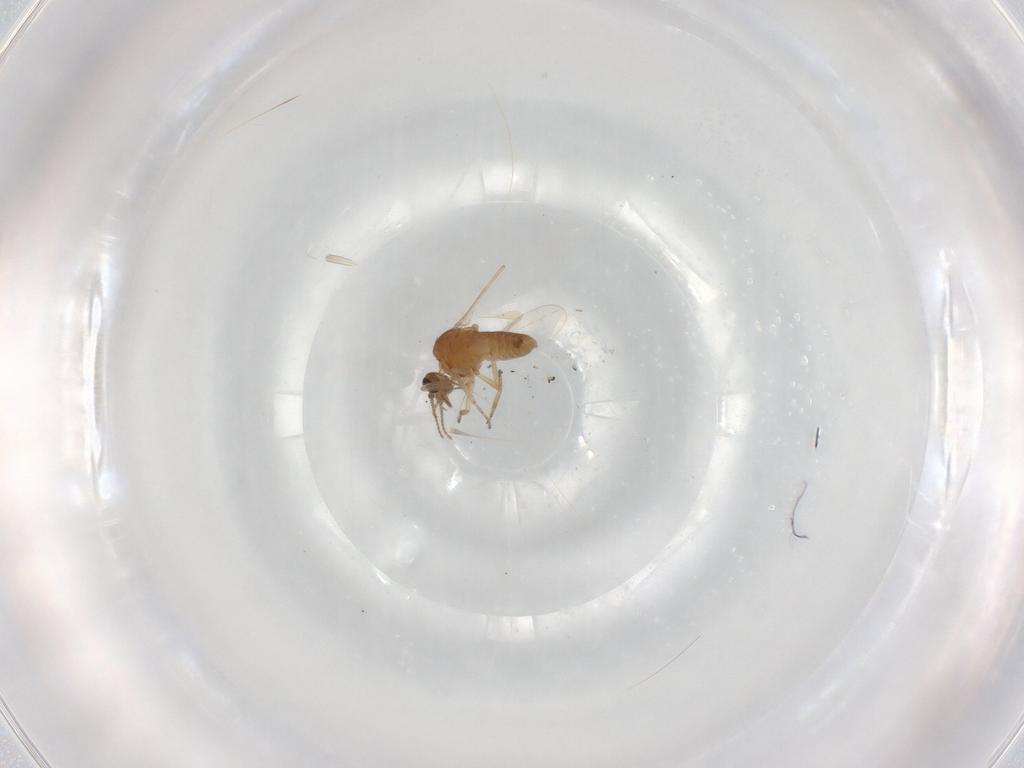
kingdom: Animalia
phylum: Arthropoda
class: Insecta
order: Diptera
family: Ceratopogonidae
